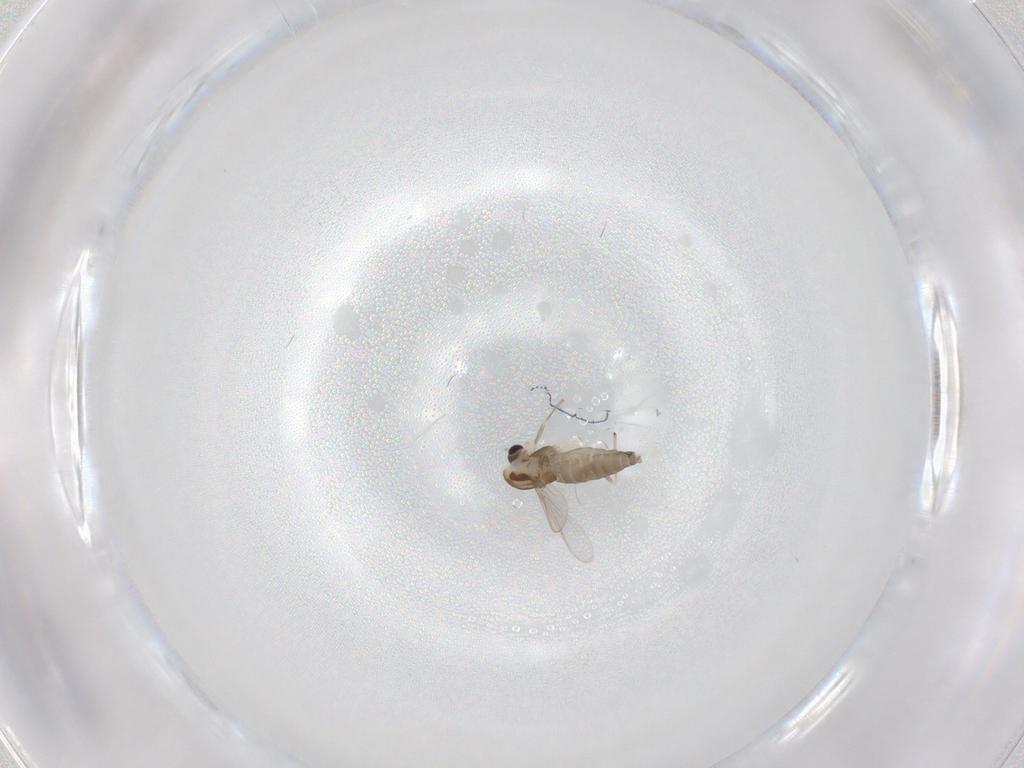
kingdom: Animalia
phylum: Arthropoda
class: Insecta
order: Diptera
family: Chironomidae
